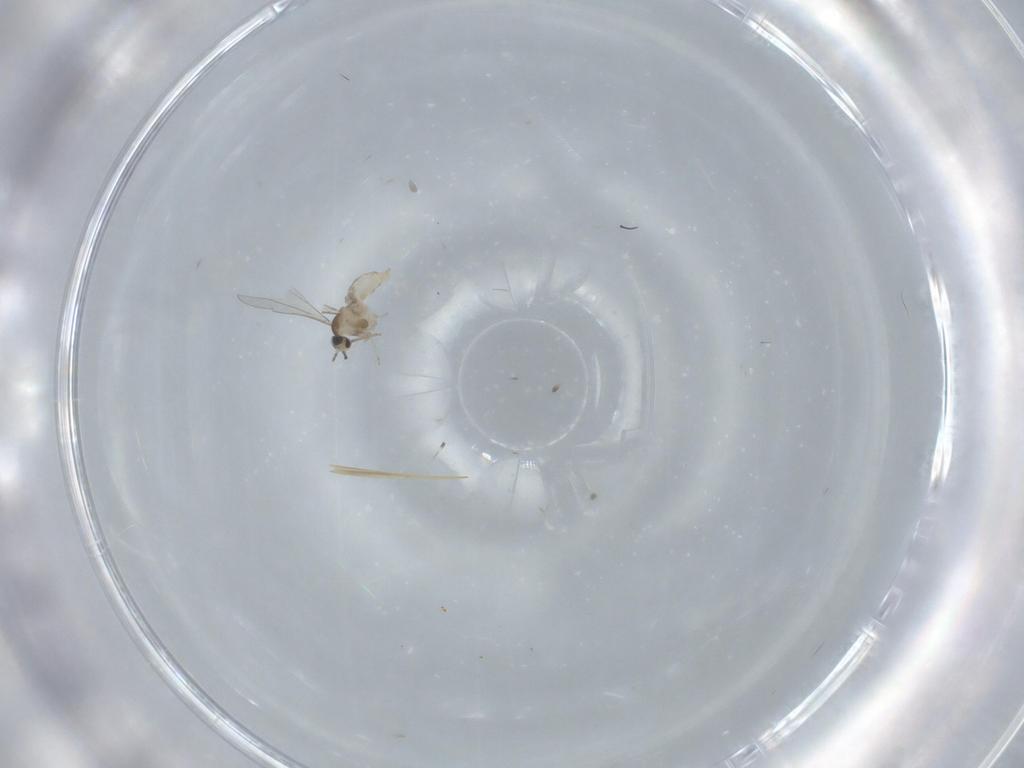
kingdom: Animalia
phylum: Arthropoda
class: Insecta
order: Diptera
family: Cecidomyiidae
